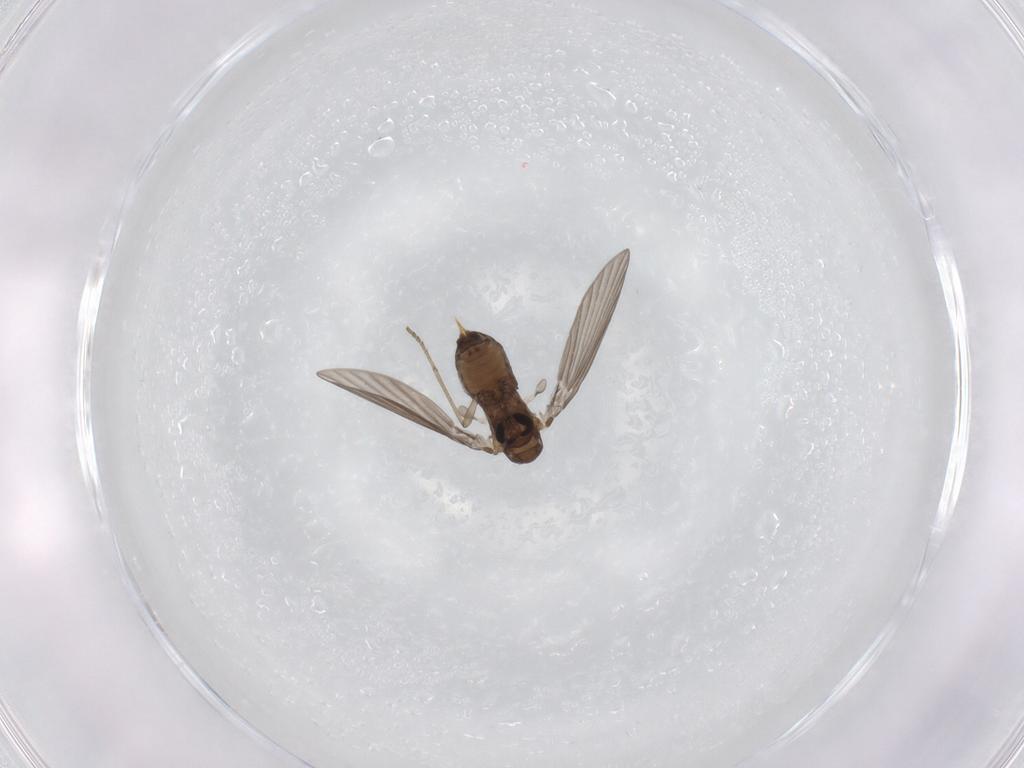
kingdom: Animalia
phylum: Arthropoda
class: Insecta
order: Diptera
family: Psychodidae
